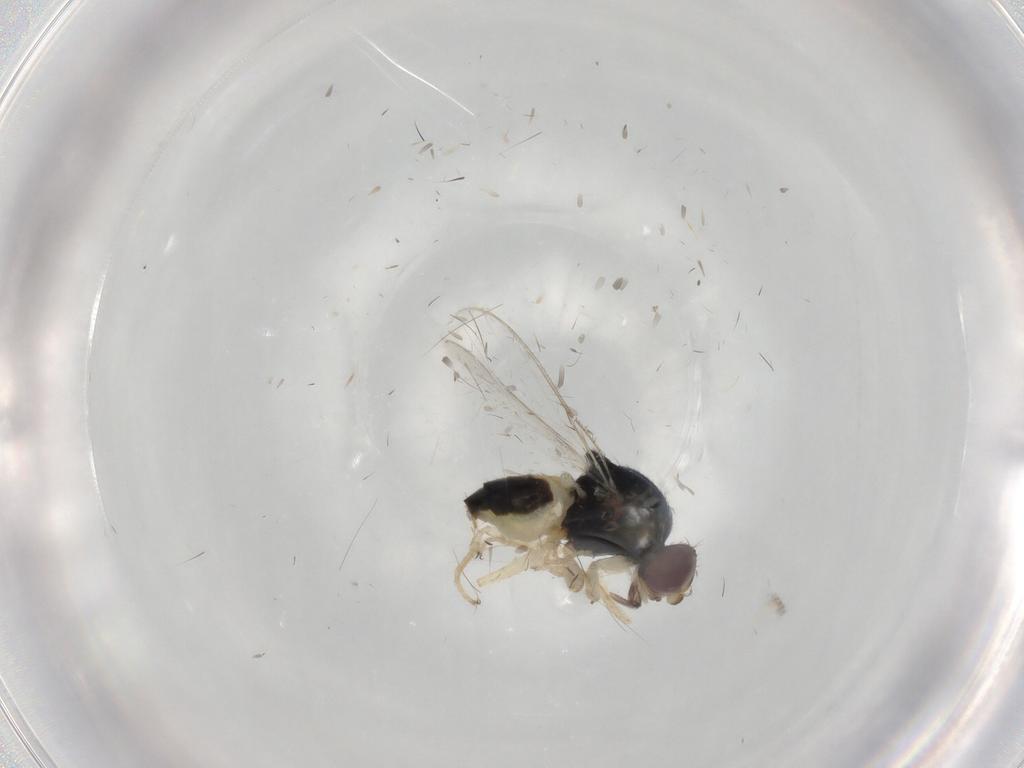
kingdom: Animalia
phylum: Arthropoda
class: Insecta
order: Diptera
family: Chloropidae
